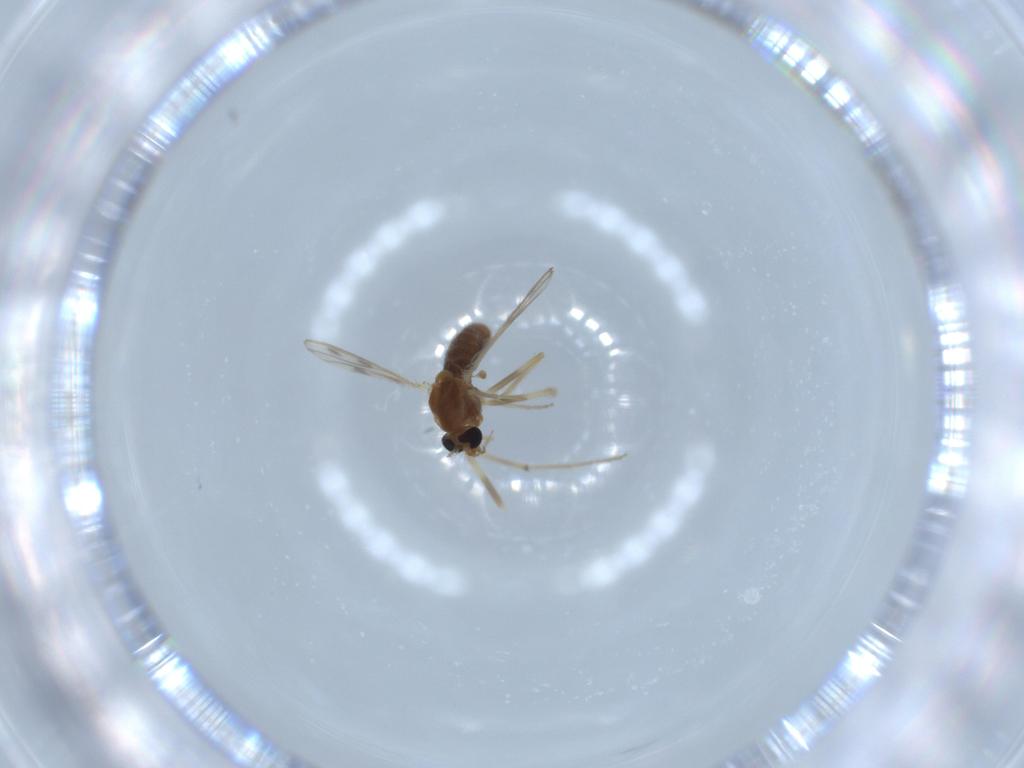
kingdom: Animalia
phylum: Arthropoda
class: Insecta
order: Diptera
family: Chironomidae
